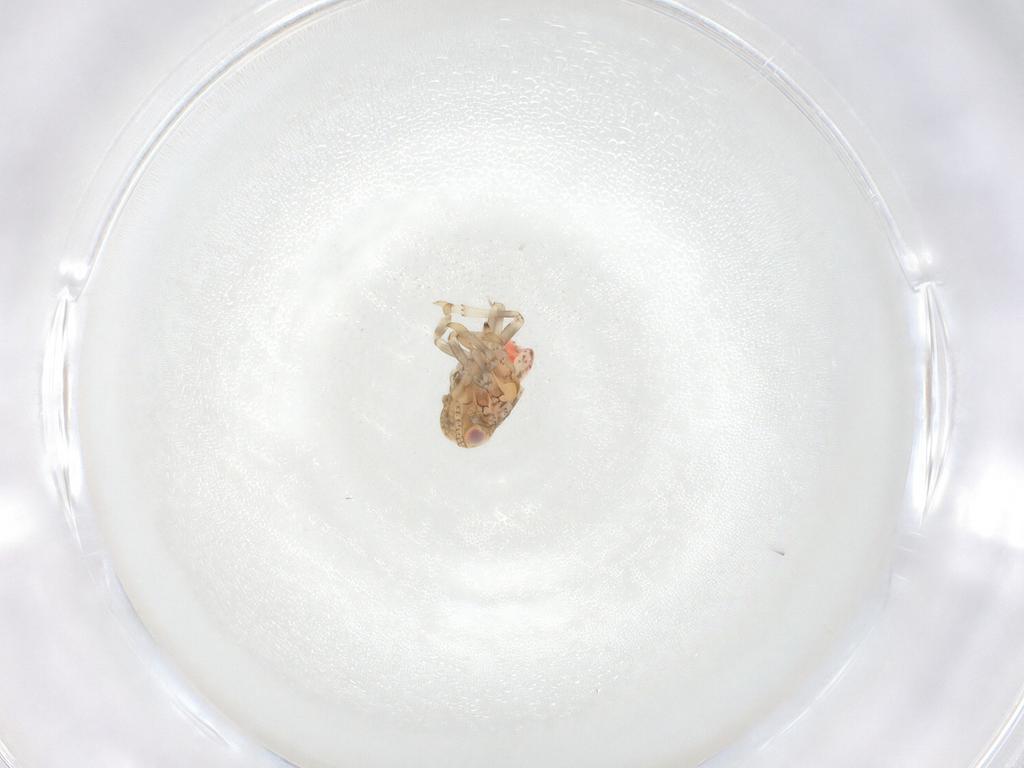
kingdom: Animalia
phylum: Arthropoda
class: Insecta
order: Hemiptera
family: Nogodinidae
